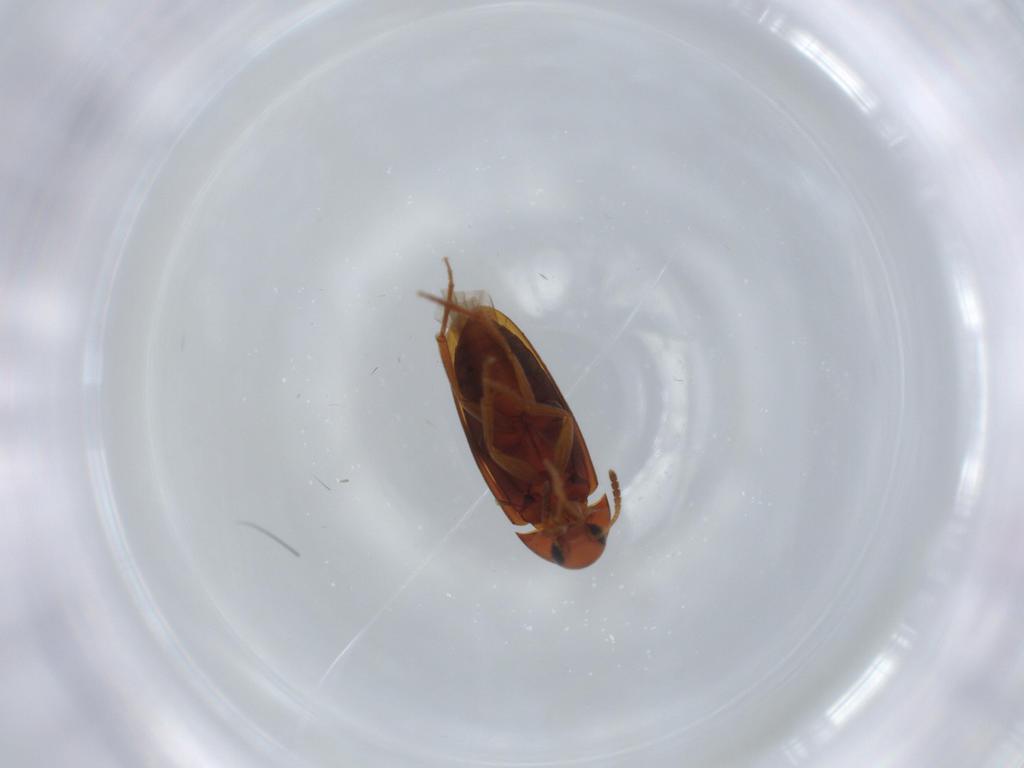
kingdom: Animalia
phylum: Arthropoda
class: Insecta
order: Coleoptera
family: Scraptiidae
